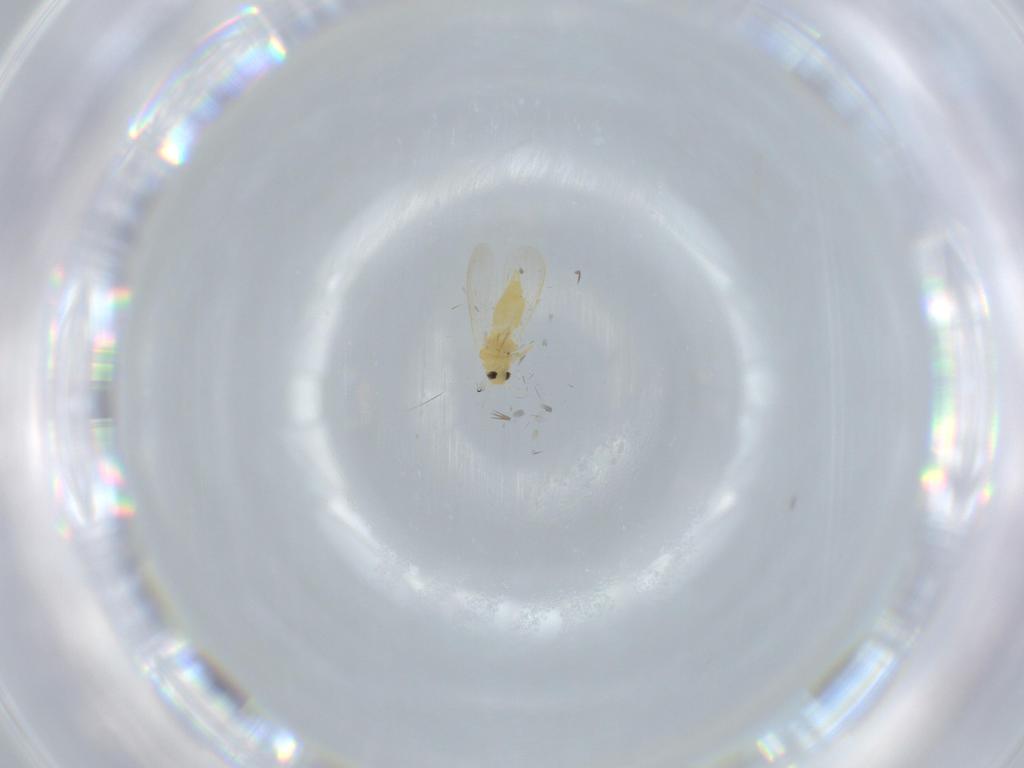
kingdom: Animalia
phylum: Arthropoda
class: Insecta
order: Hemiptera
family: Aleyrodidae
